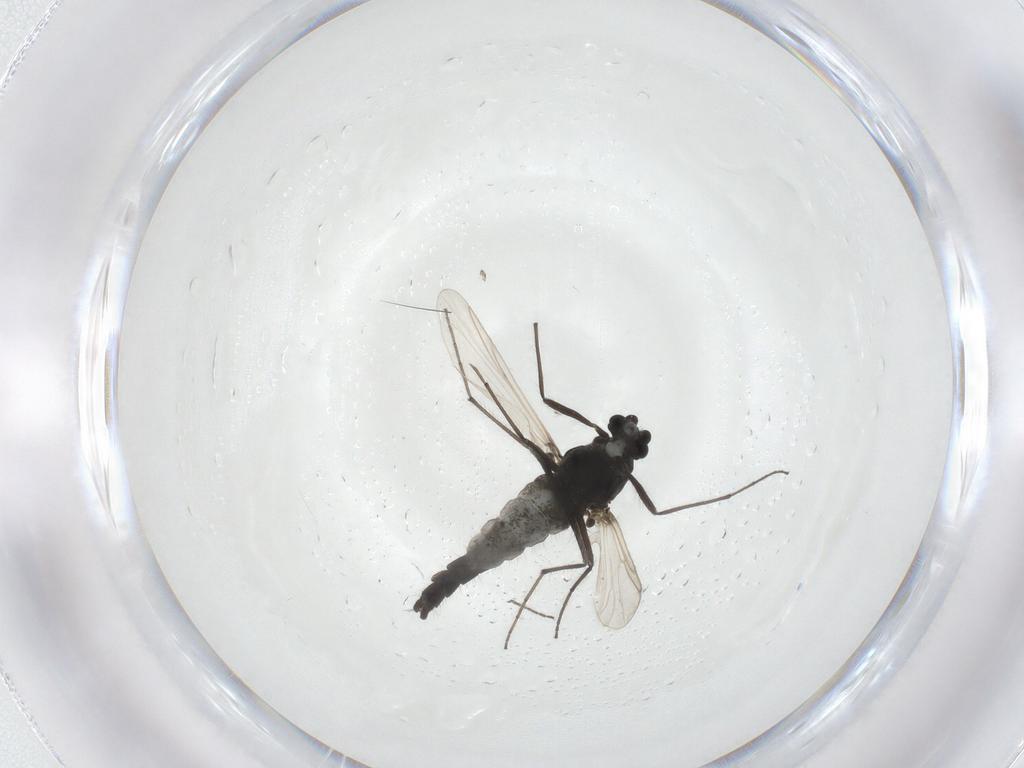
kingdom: Animalia
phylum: Arthropoda
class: Insecta
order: Diptera
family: Chironomidae
